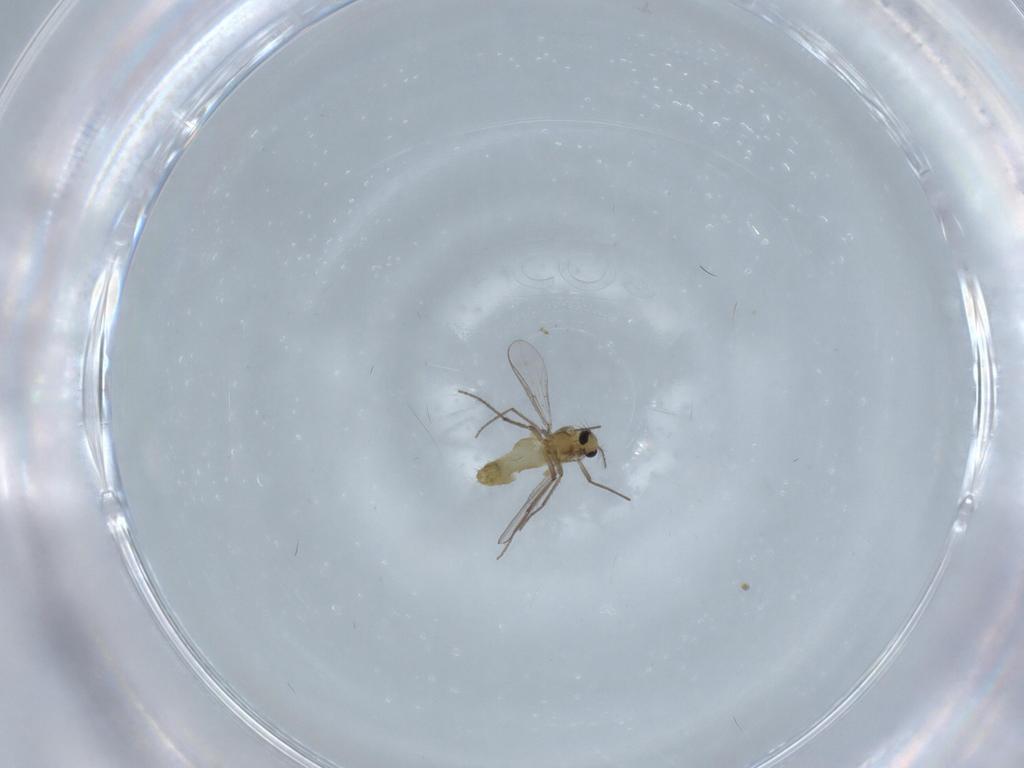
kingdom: Animalia
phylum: Arthropoda
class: Insecta
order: Diptera
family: Chironomidae
